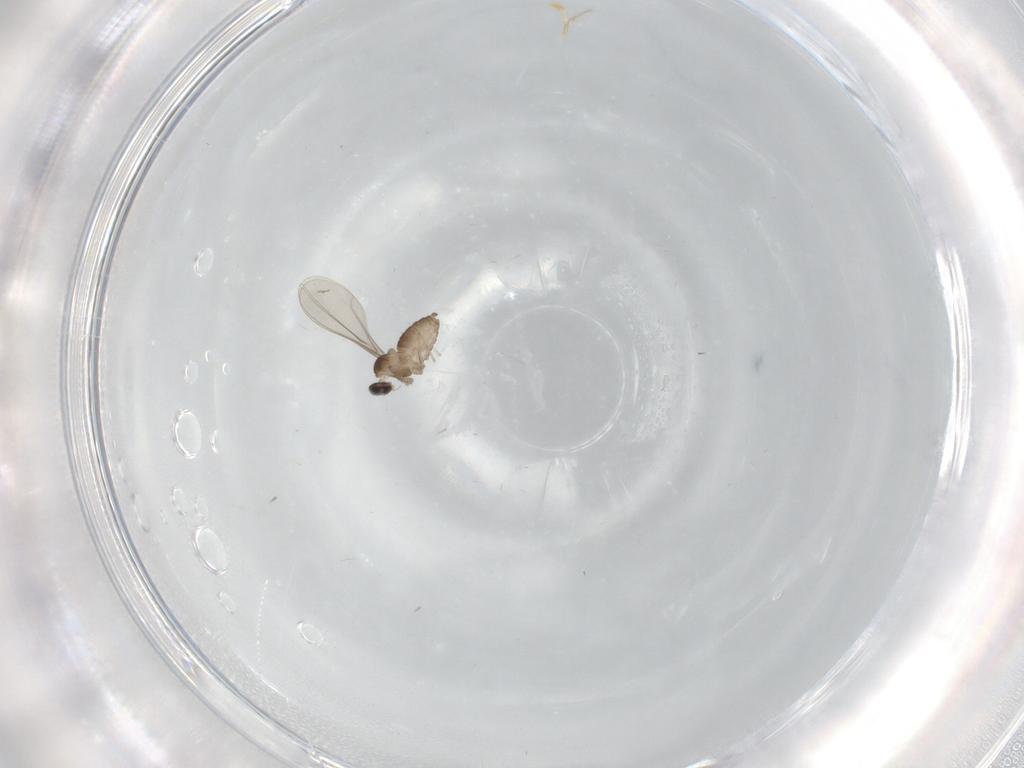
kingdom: Animalia
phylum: Arthropoda
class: Insecta
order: Diptera
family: Cecidomyiidae
